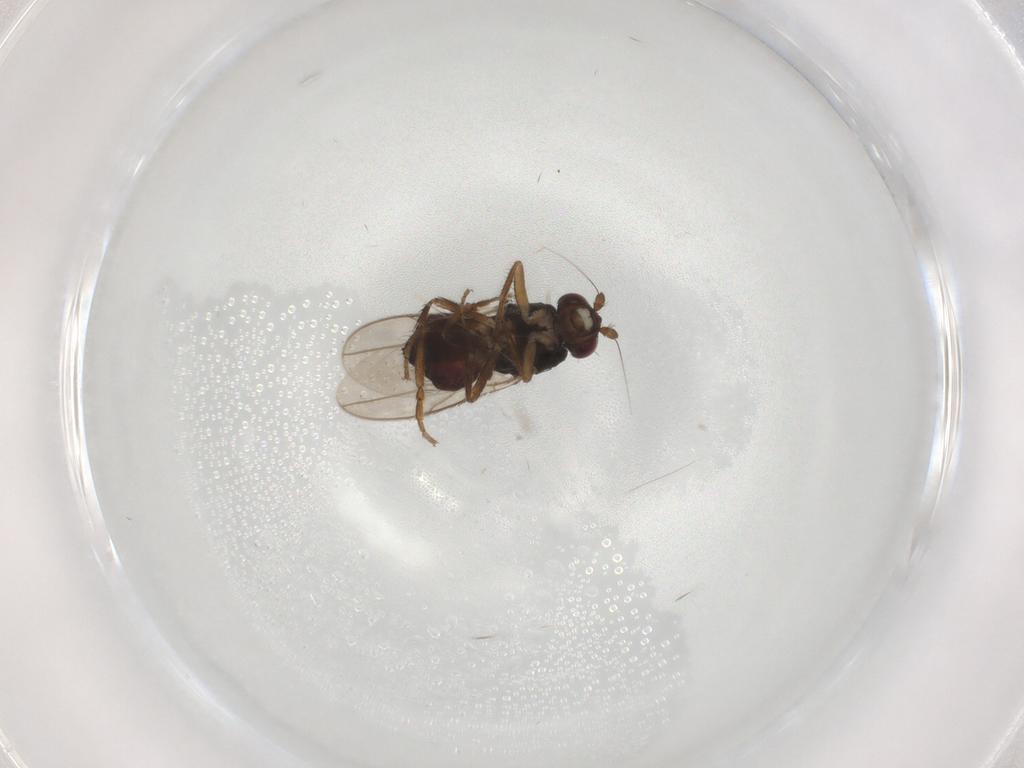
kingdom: Animalia
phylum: Arthropoda
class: Insecta
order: Diptera
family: Sphaeroceridae
